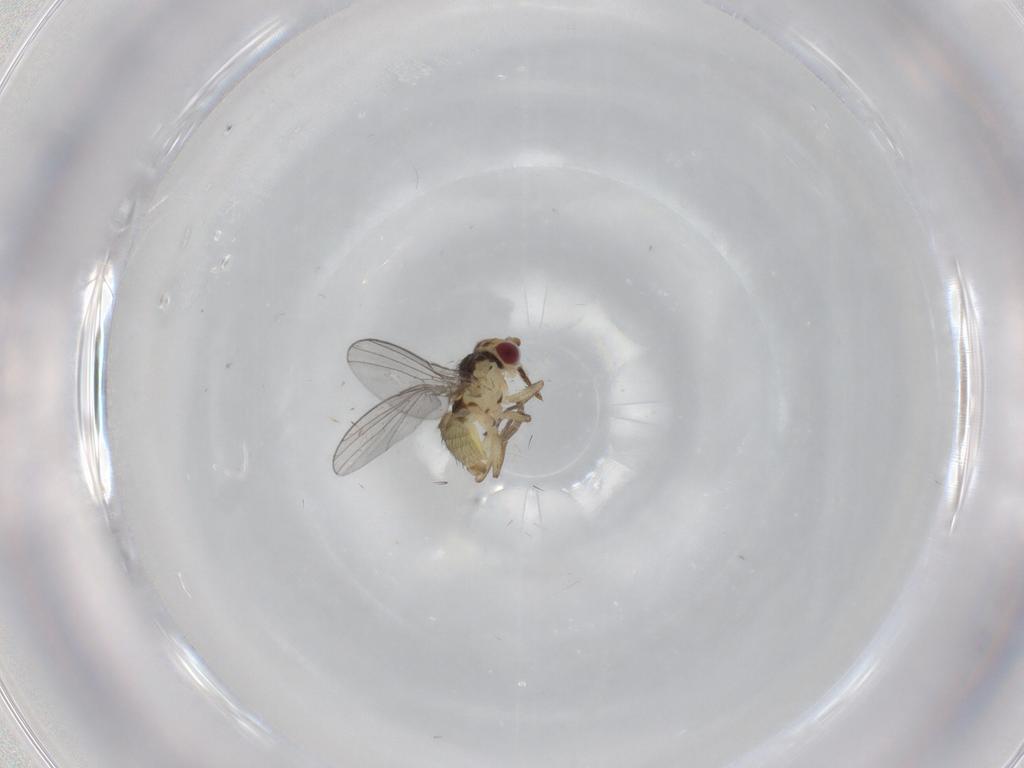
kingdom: Animalia
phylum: Arthropoda
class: Insecta
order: Diptera
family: Agromyzidae
